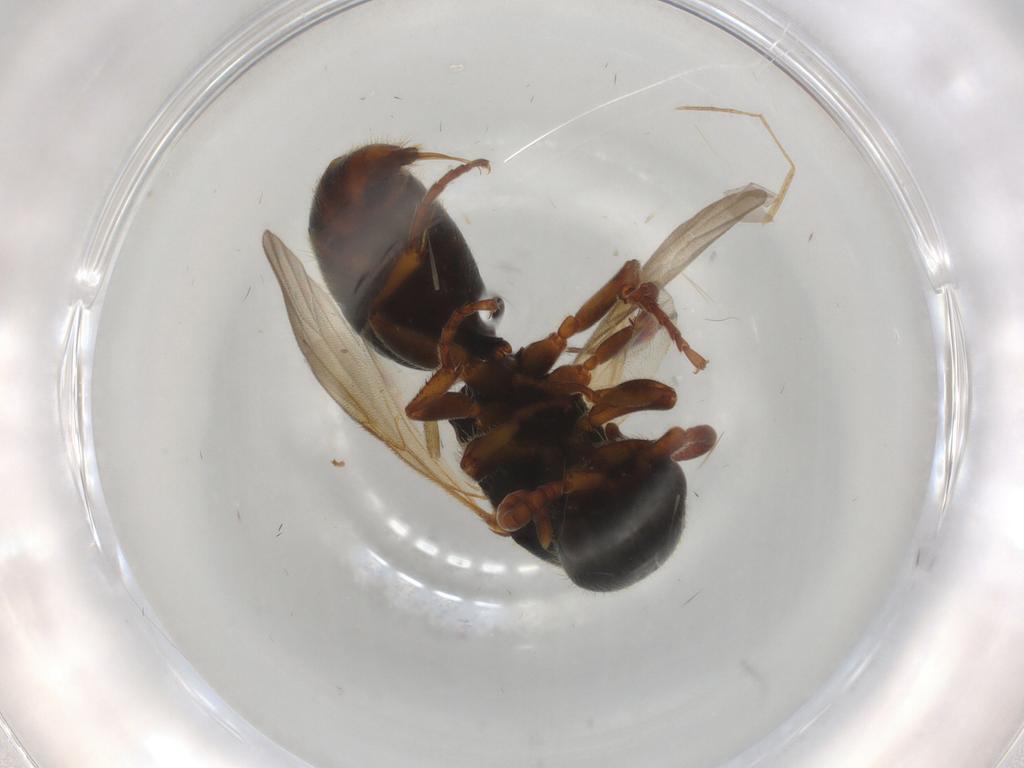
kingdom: Animalia
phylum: Arthropoda
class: Insecta
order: Hymenoptera
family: Bethylidae
